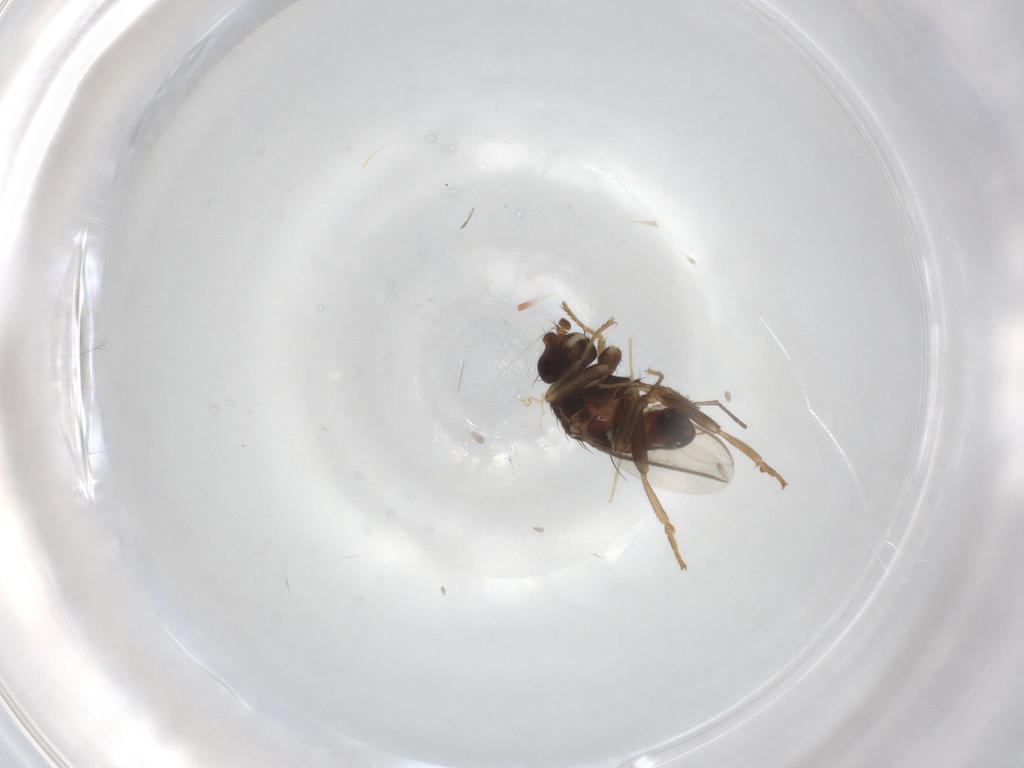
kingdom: Animalia
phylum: Arthropoda
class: Insecta
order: Diptera
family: Sphaeroceridae
